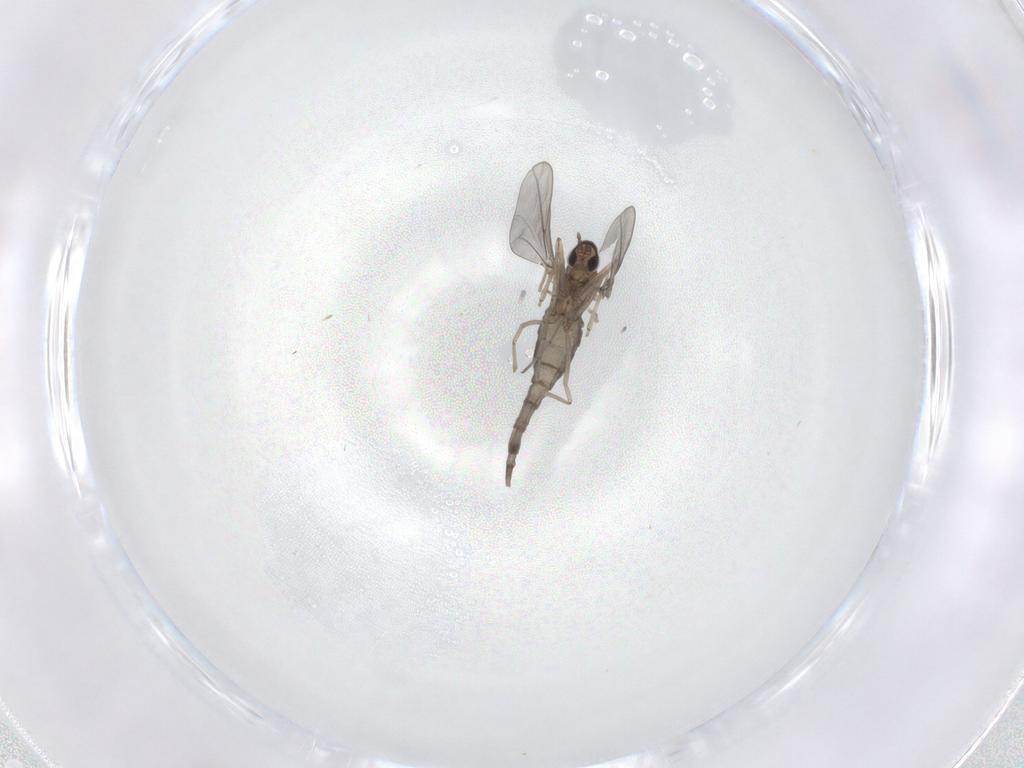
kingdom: Animalia
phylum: Arthropoda
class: Insecta
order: Diptera
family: Cecidomyiidae
